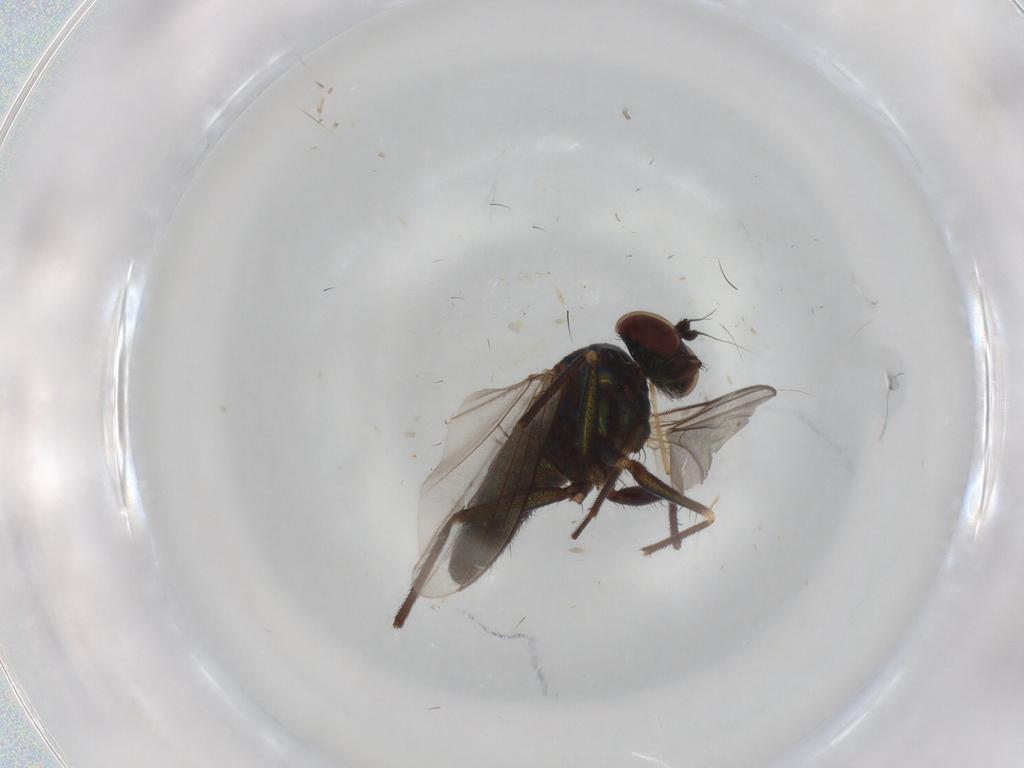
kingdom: Animalia
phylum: Arthropoda
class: Insecta
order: Diptera
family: Dolichopodidae
